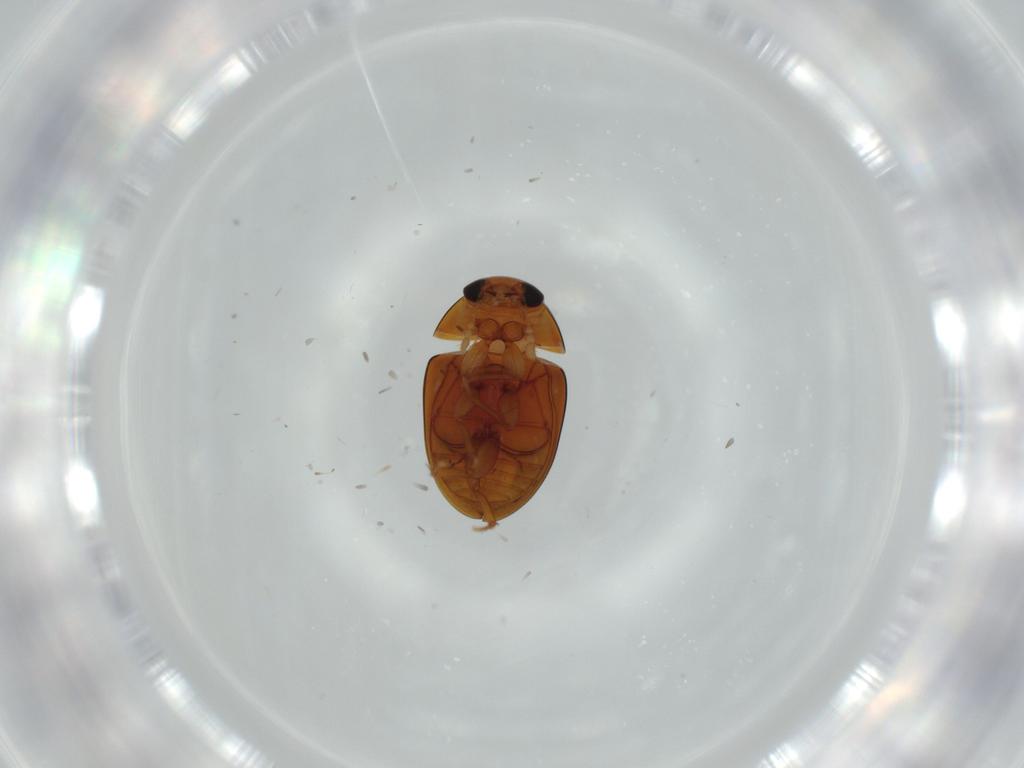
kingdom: Animalia
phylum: Arthropoda
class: Insecta
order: Coleoptera
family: Phalacridae
